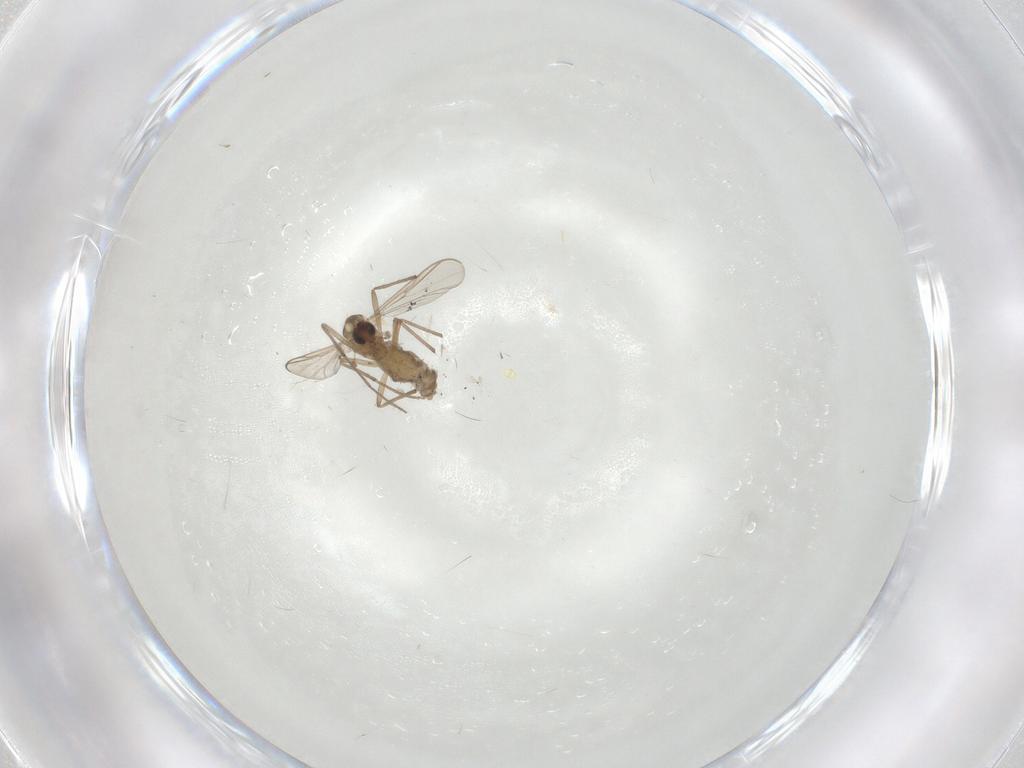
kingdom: Animalia
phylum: Arthropoda
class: Insecta
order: Diptera
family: Chironomidae
